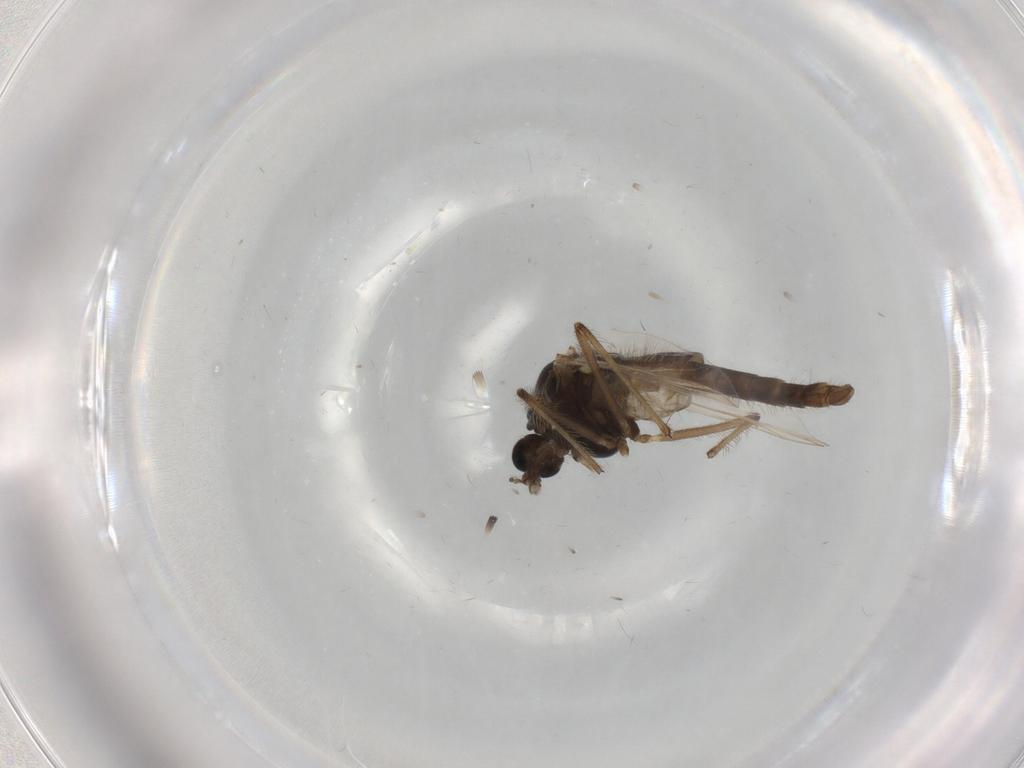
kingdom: Animalia
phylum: Arthropoda
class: Insecta
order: Diptera
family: Phoridae
